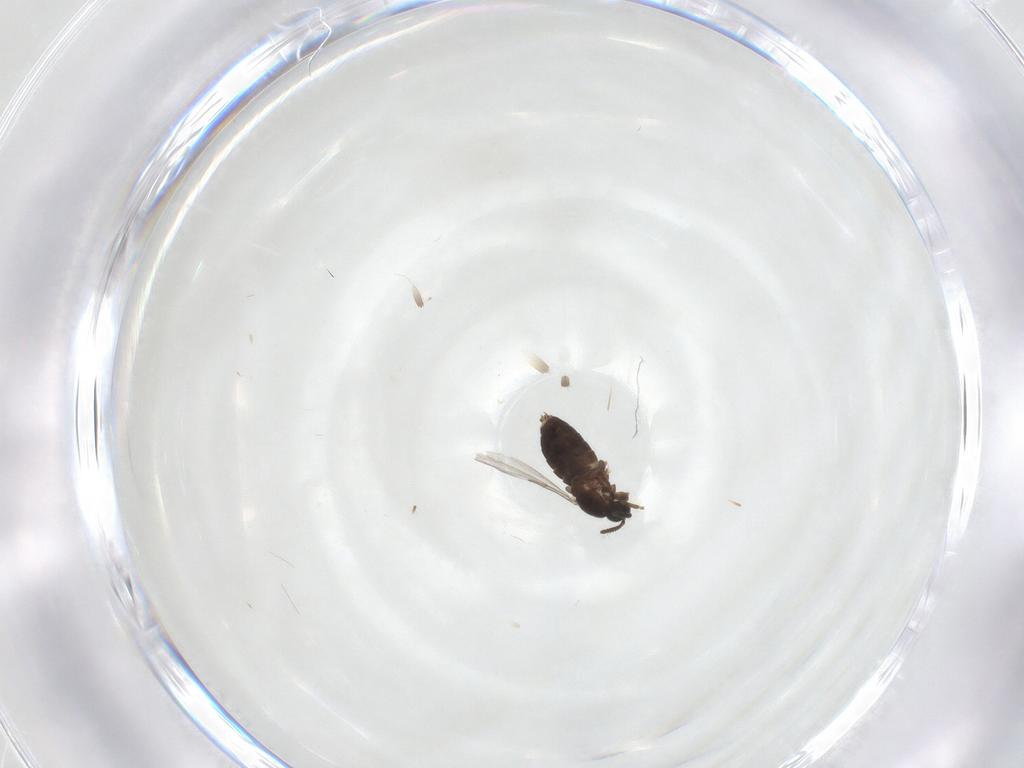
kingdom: Animalia
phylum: Arthropoda
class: Insecta
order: Diptera
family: Scatopsidae
